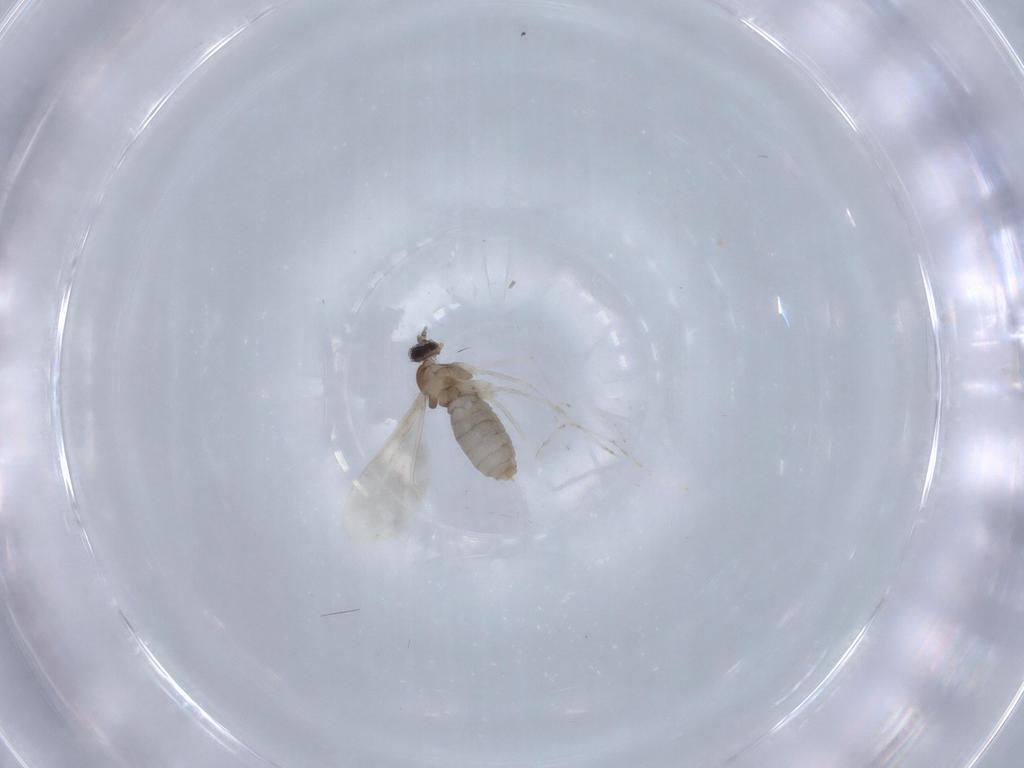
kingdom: Animalia
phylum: Arthropoda
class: Insecta
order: Diptera
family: Cecidomyiidae
